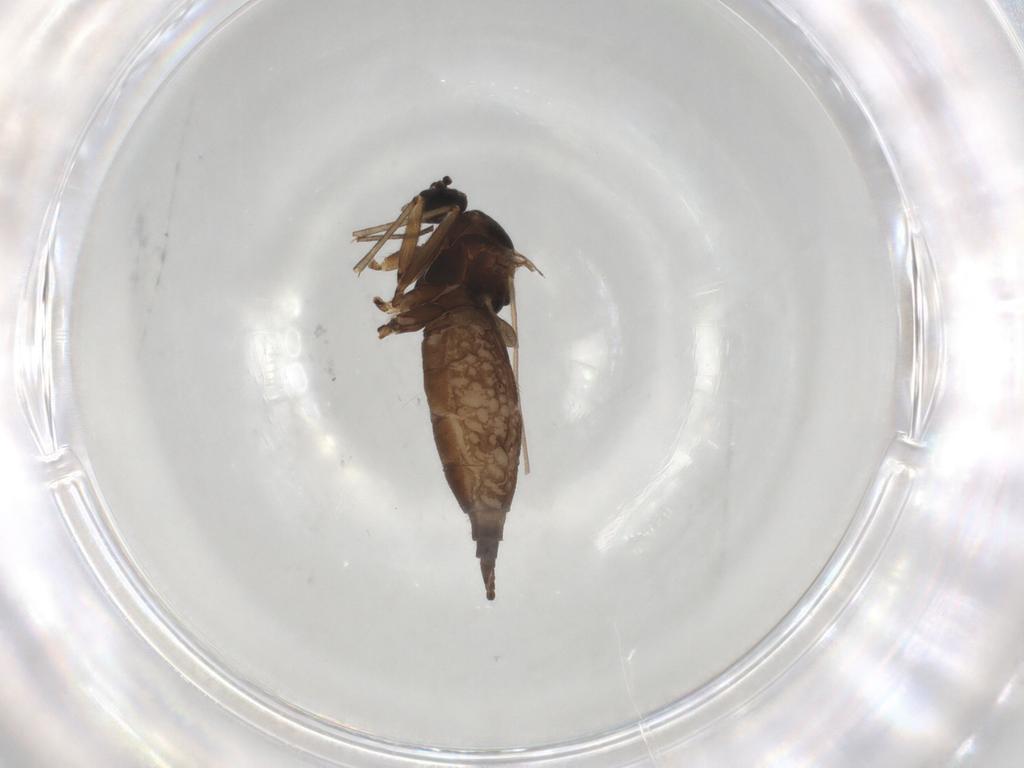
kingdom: Animalia
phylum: Arthropoda
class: Insecta
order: Diptera
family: Sciaridae
